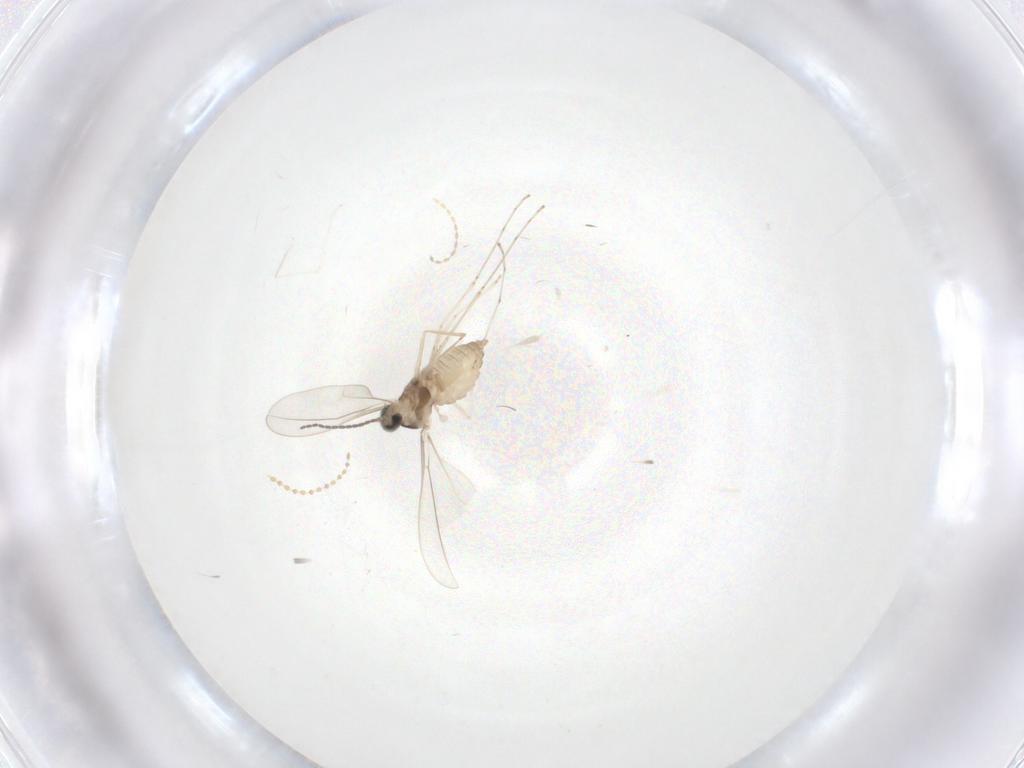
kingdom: Animalia
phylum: Arthropoda
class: Insecta
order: Diptera
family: Cecidomyiidae
